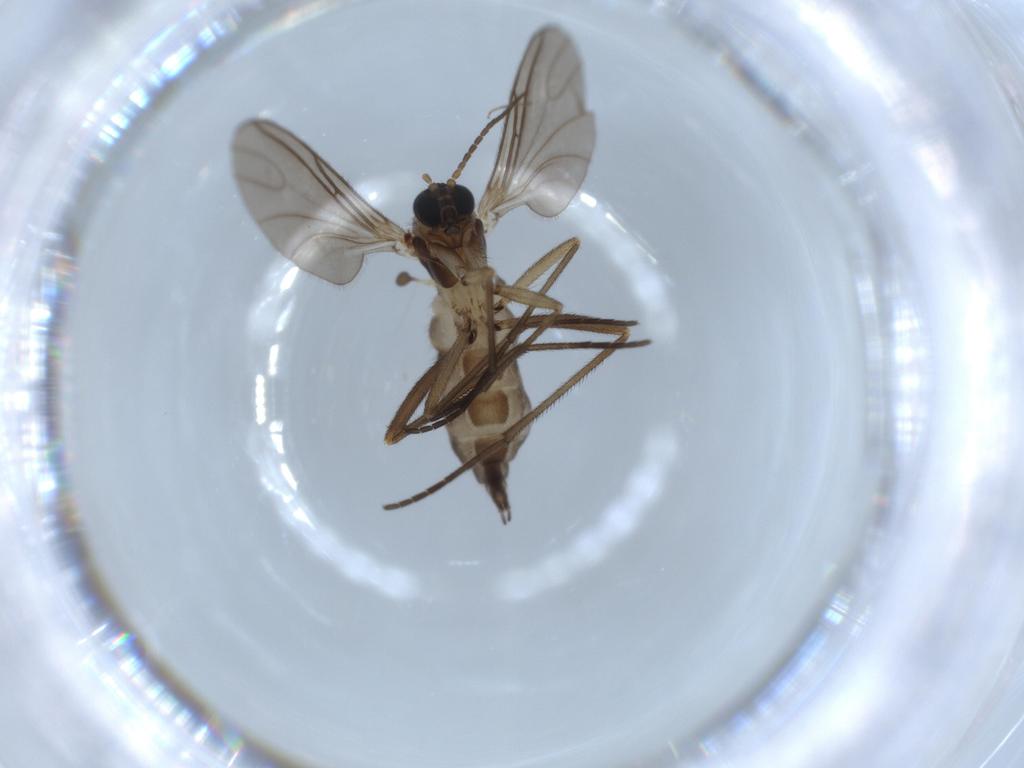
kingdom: Animalia
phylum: Arthropoda
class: Insecta
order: Diptera
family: Sciaridae
